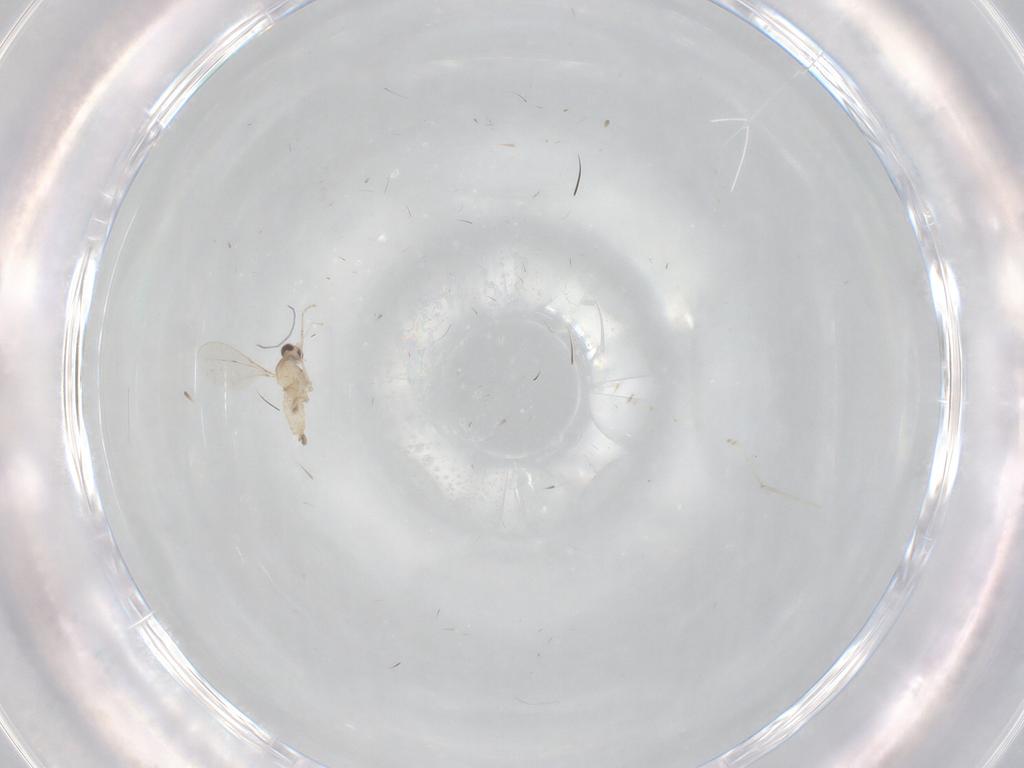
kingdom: Animalia
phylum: Arthropoda
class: Insecta
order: Diptera
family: Cecidomyiidae
